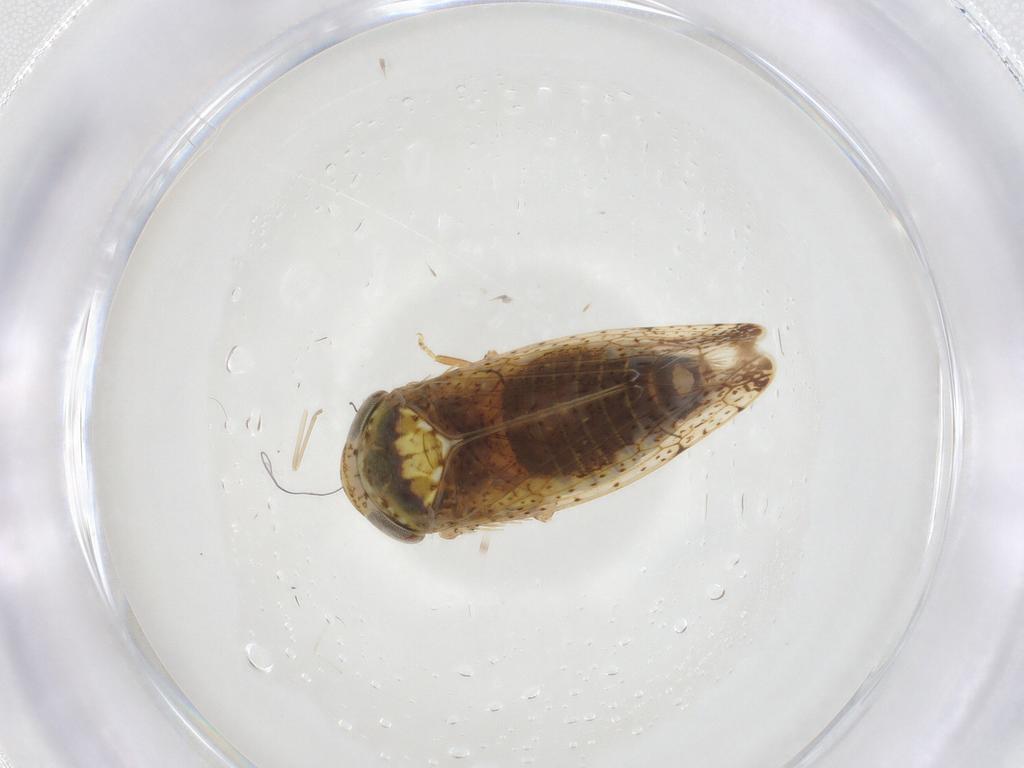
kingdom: Animalia
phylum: Arthropoda
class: Insecta
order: Hemiptera
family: Cicadellidae
